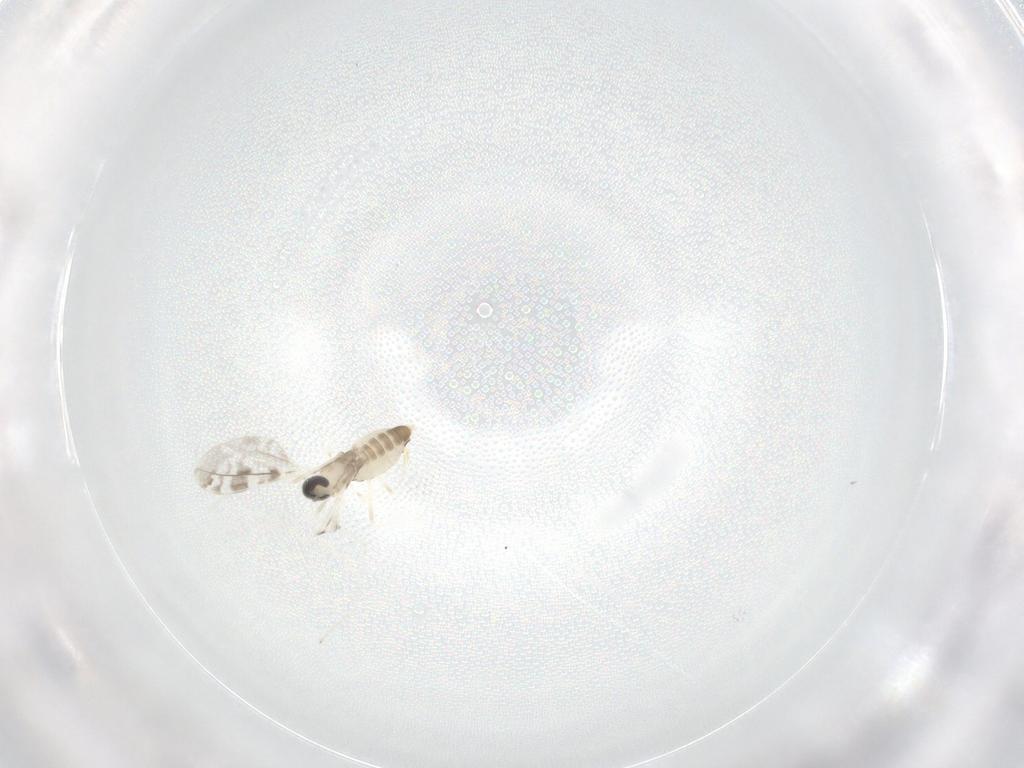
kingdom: Animalia
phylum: Arthropoda
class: Insecta
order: Diptera
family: Cecidomyiidae
